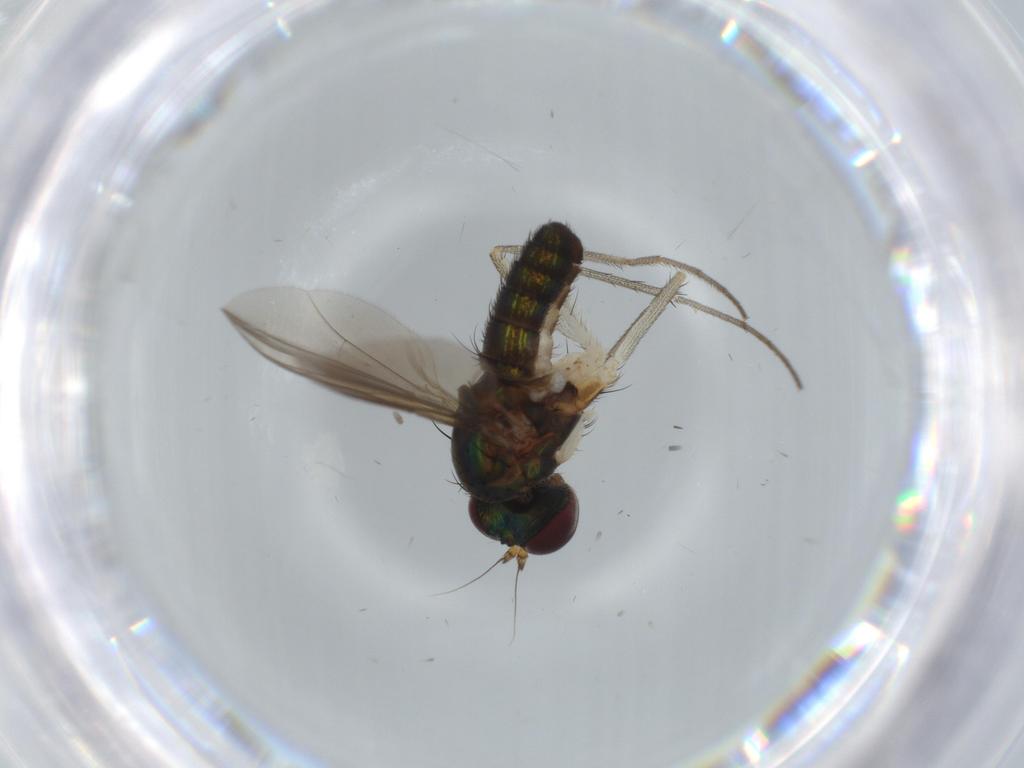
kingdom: Animalia
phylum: Arthropoda
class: Insecta
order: Diptera
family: Dolichopodidae
